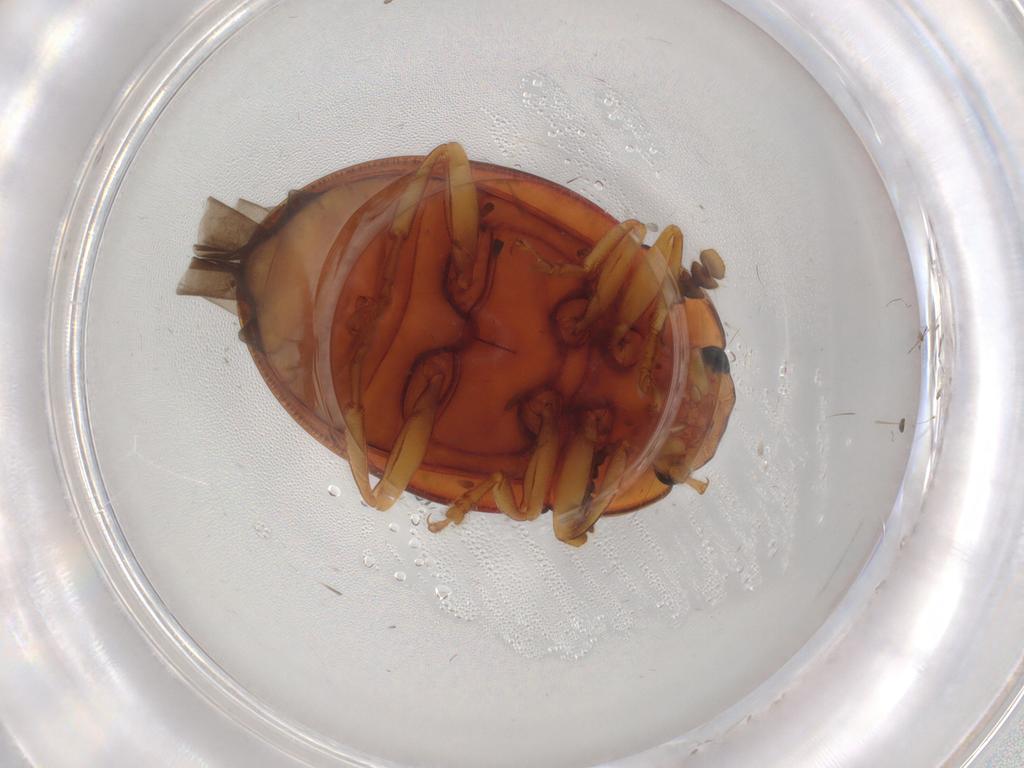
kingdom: Animalia
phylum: Arthropoda
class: Insecta
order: Coleoptera
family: Erotylidae
